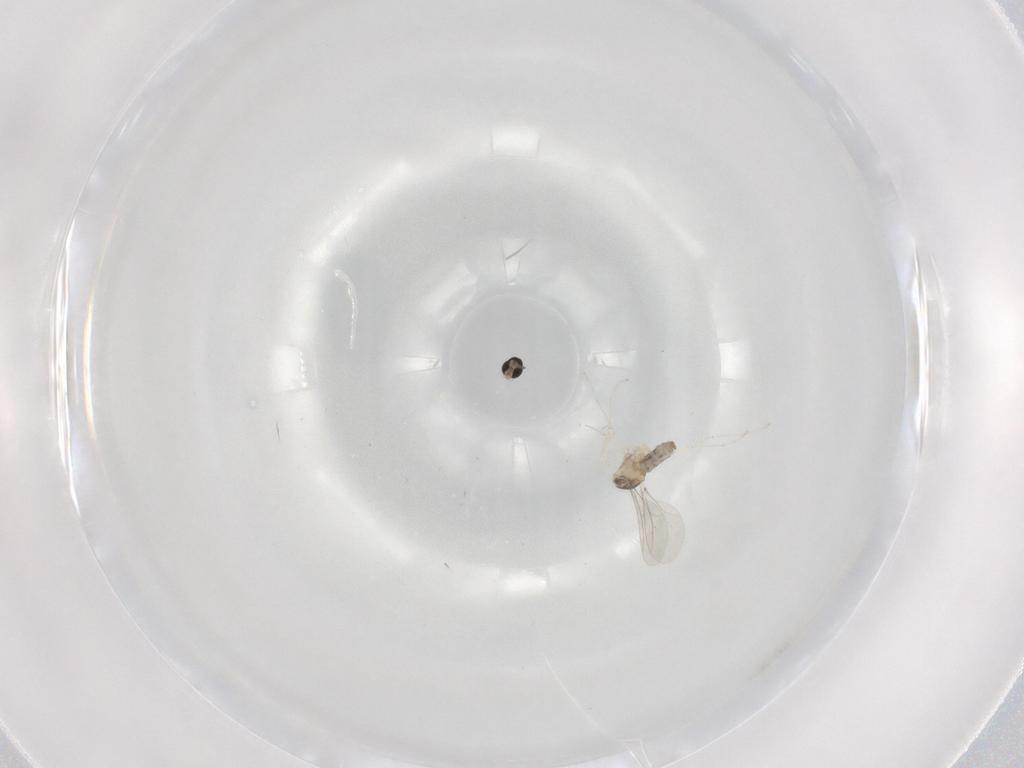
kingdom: Animalia
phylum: Arthropoda
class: Insecta
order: Diptera
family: Cecidomyiidae
